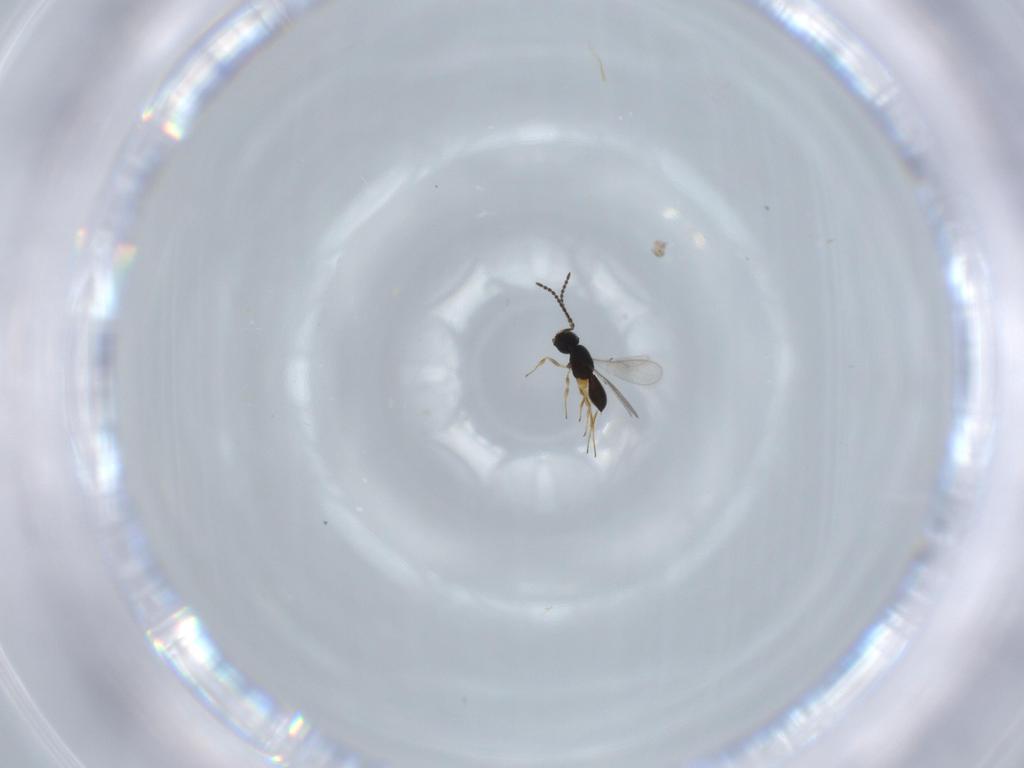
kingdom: Animalia
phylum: Arthropoda
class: Insecta
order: Hymenoptera
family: Scelionidae
